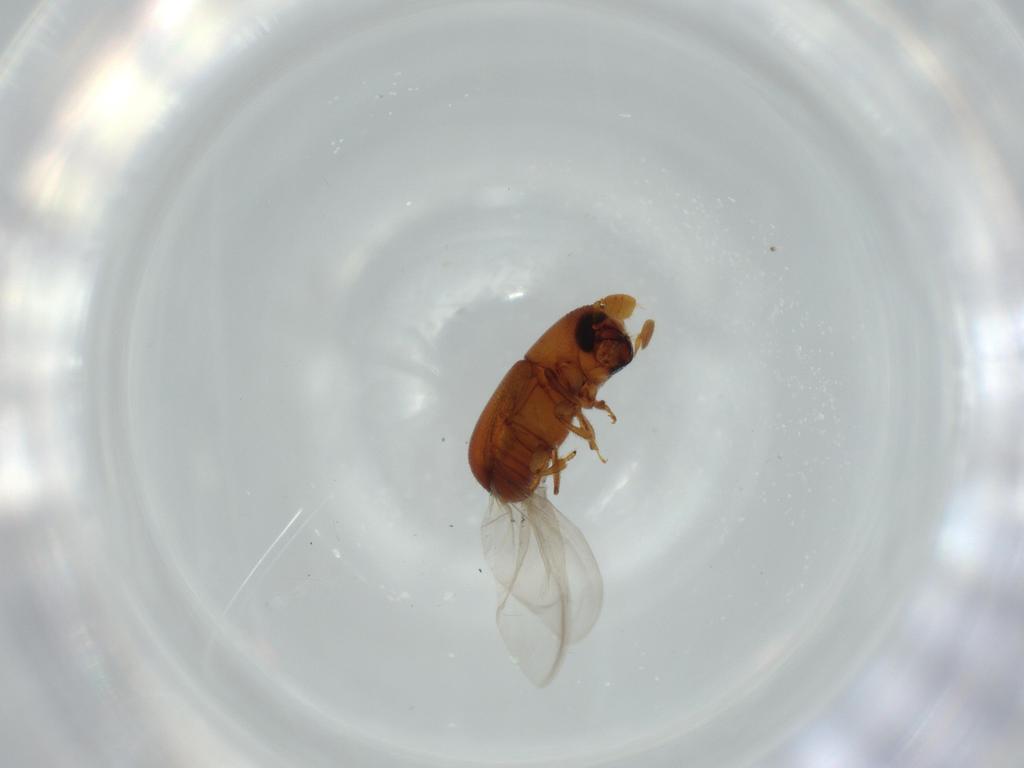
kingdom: Animalia
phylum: Arthropoda
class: Insecta
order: Coleoptera
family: Curculionidae
